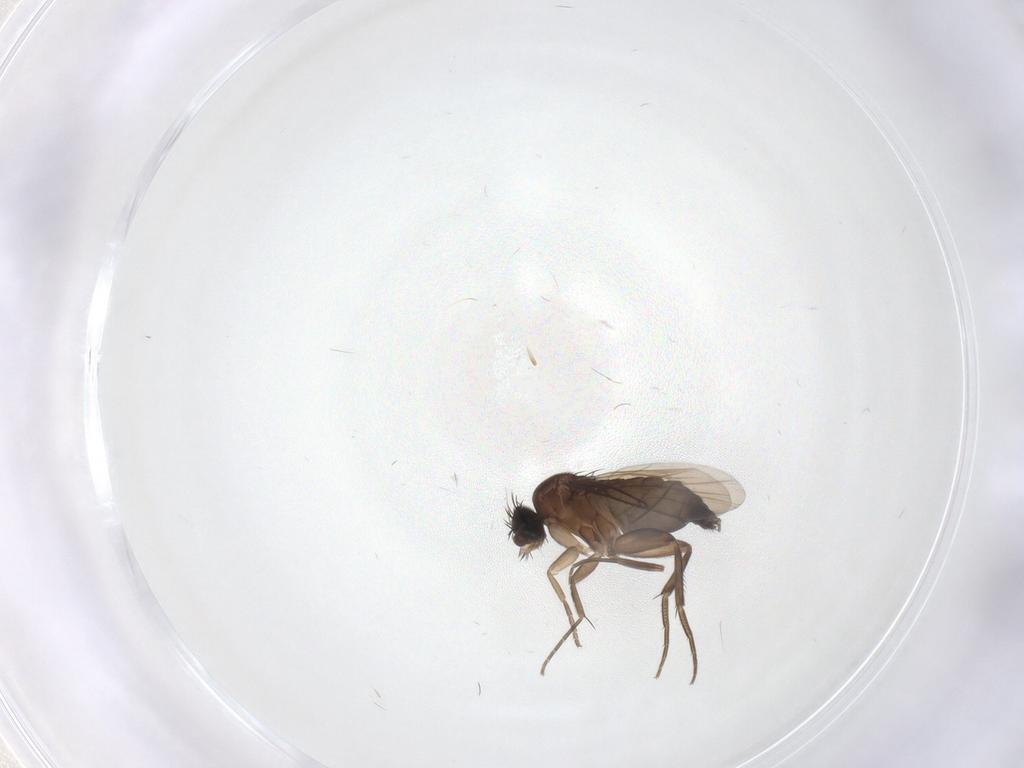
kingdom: Animalia
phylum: Arthropoda
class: Insecta
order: Diptera
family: Phoridae
